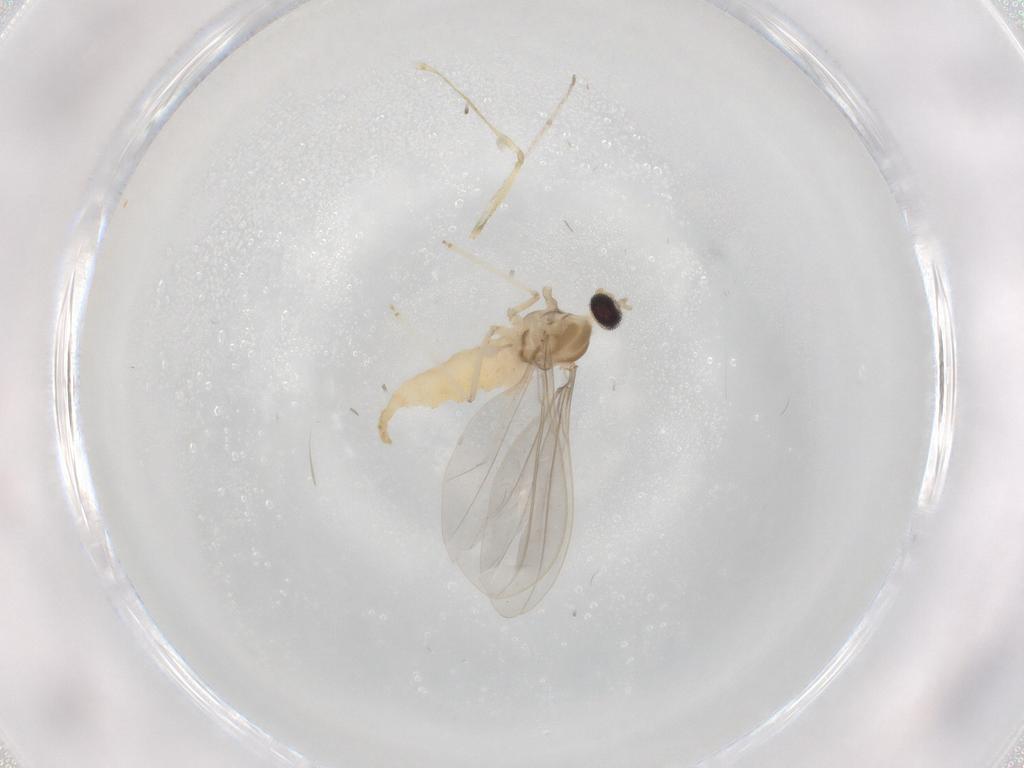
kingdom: Animalia
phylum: Arthropoda
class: Insecta
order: Diptera
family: Cecidomyiidae
